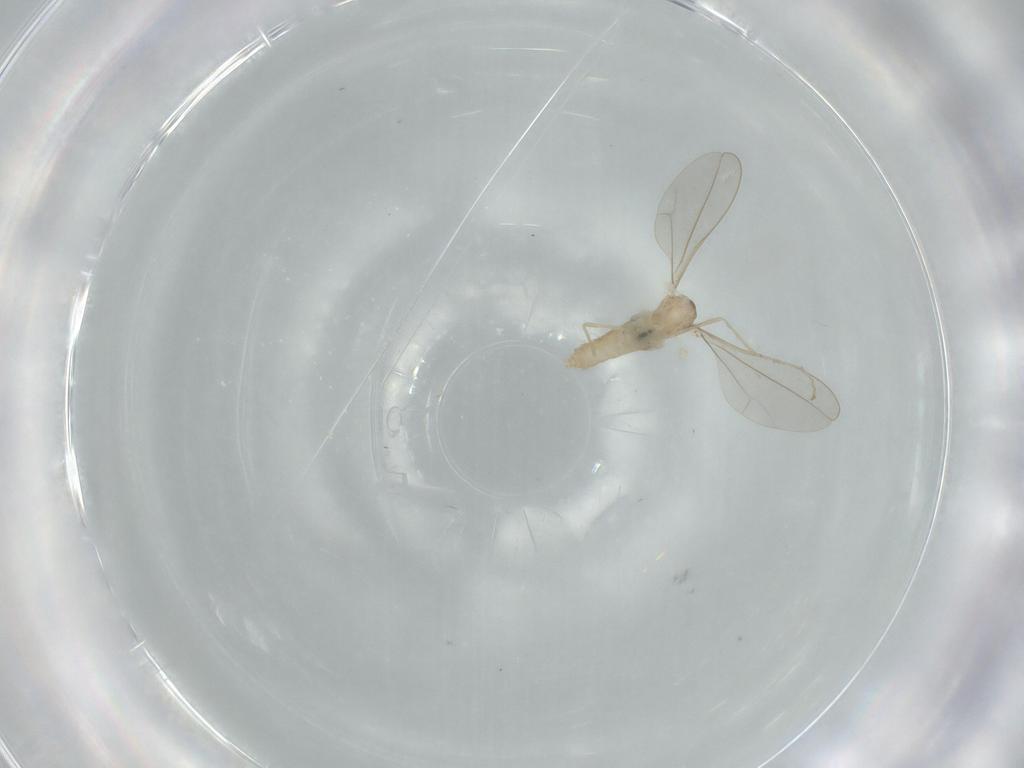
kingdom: Animalia
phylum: Arthropoda
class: Insecta
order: Diptera
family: Cecidomyiidae
